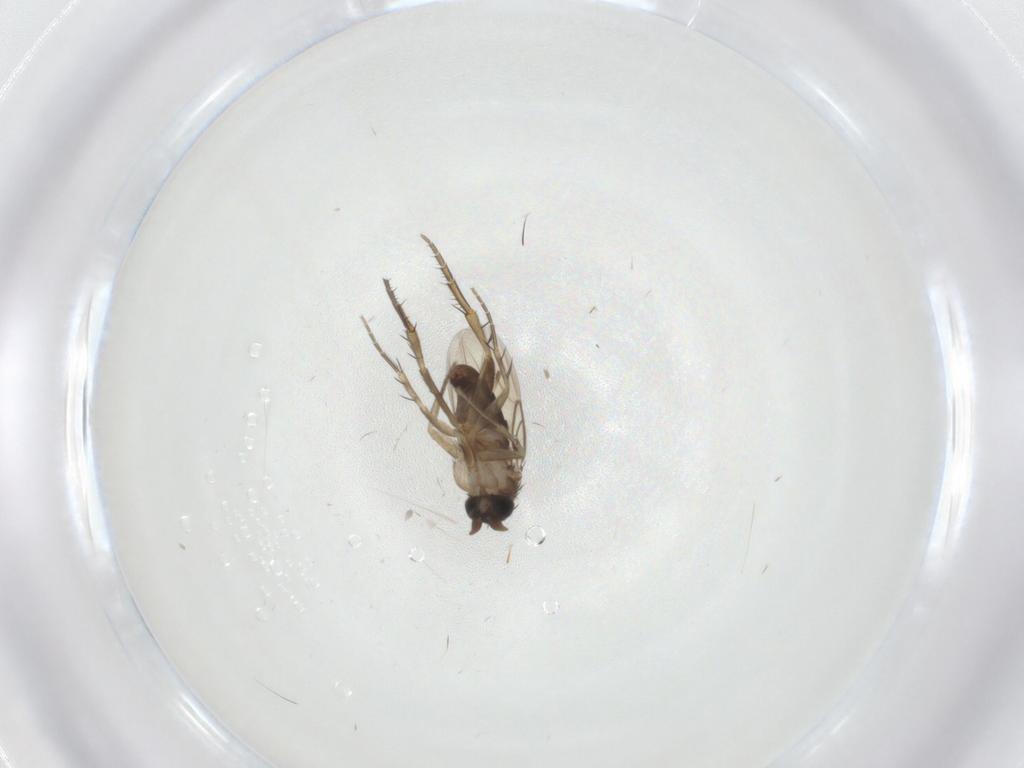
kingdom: Animalia
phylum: Arthropoda
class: Insecta
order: Diptera
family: Phoridae
